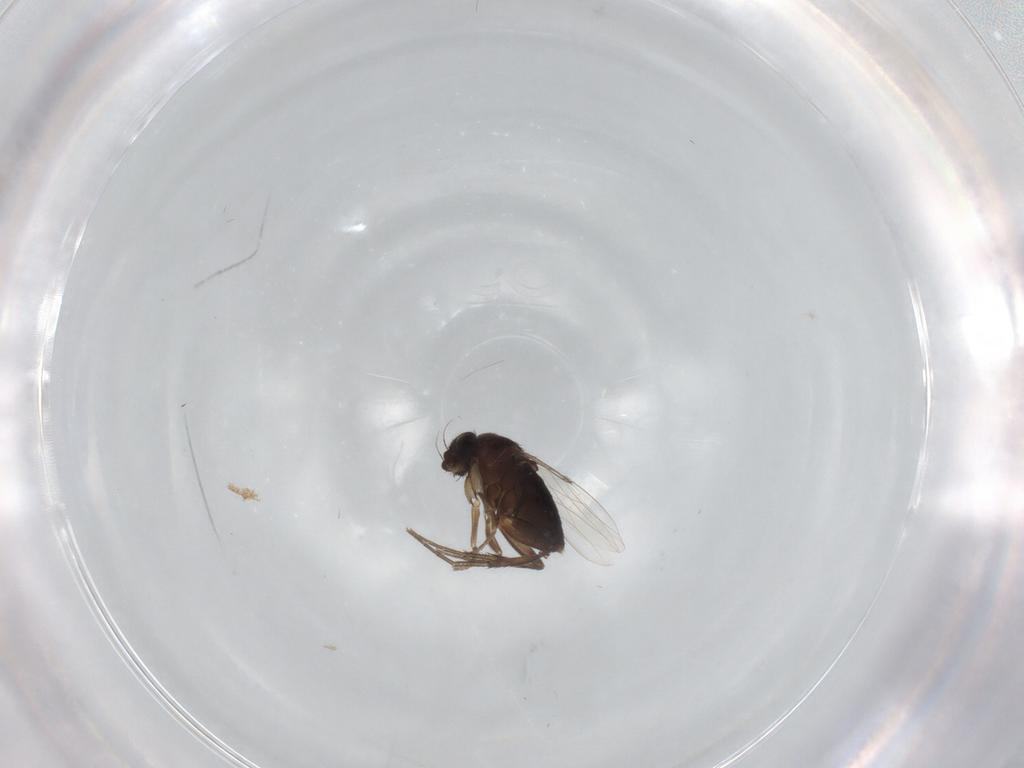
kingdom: Animalia
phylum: Arthropoda
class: Insecta
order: Diptera
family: Phoridae
